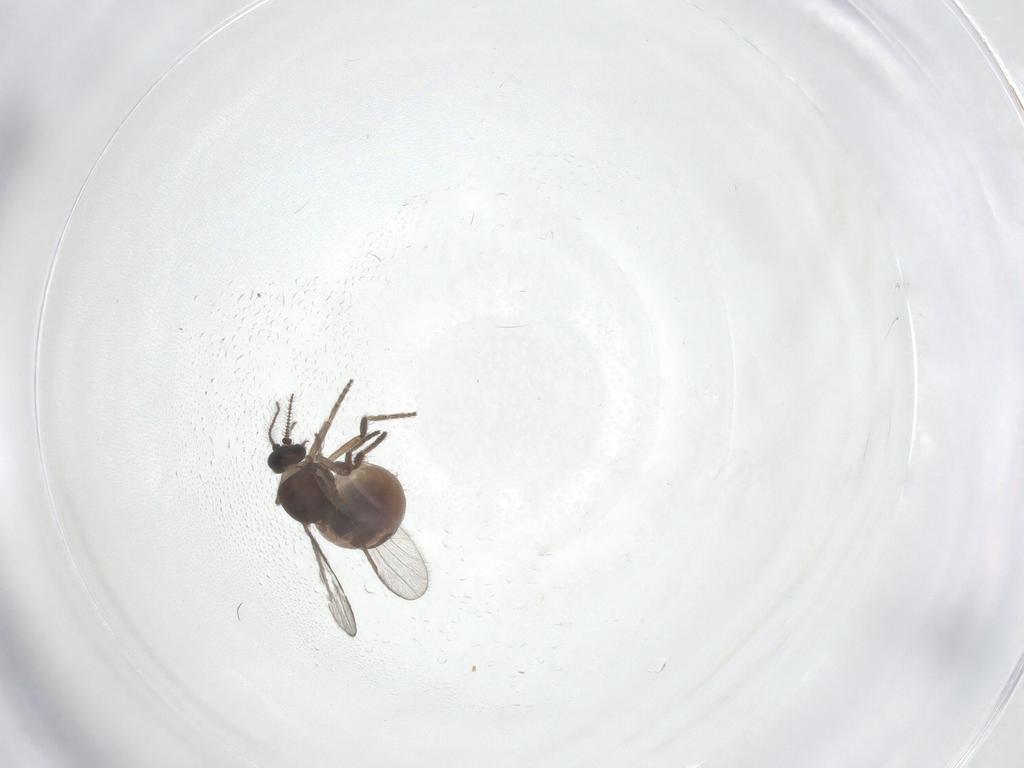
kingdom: Animalia
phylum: Arthropoda
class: Insecta
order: Diptera
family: Ceratopogonidae
